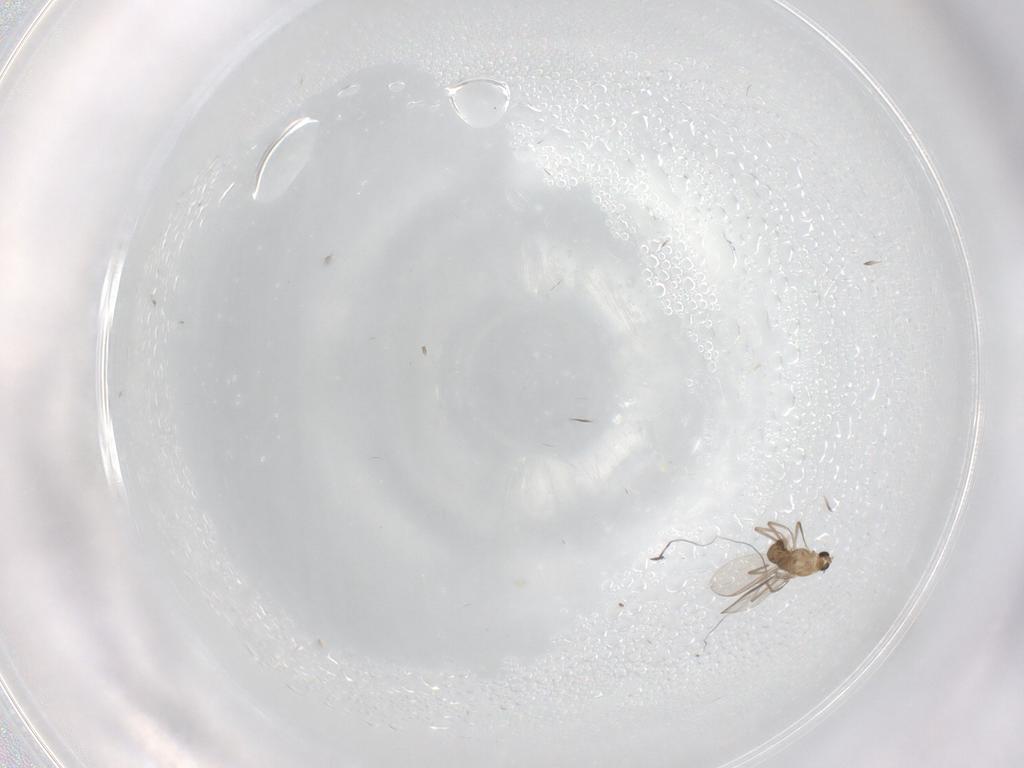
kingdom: Animalia
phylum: Arthropoda
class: Insecta
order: Diptera
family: Chironomidae
